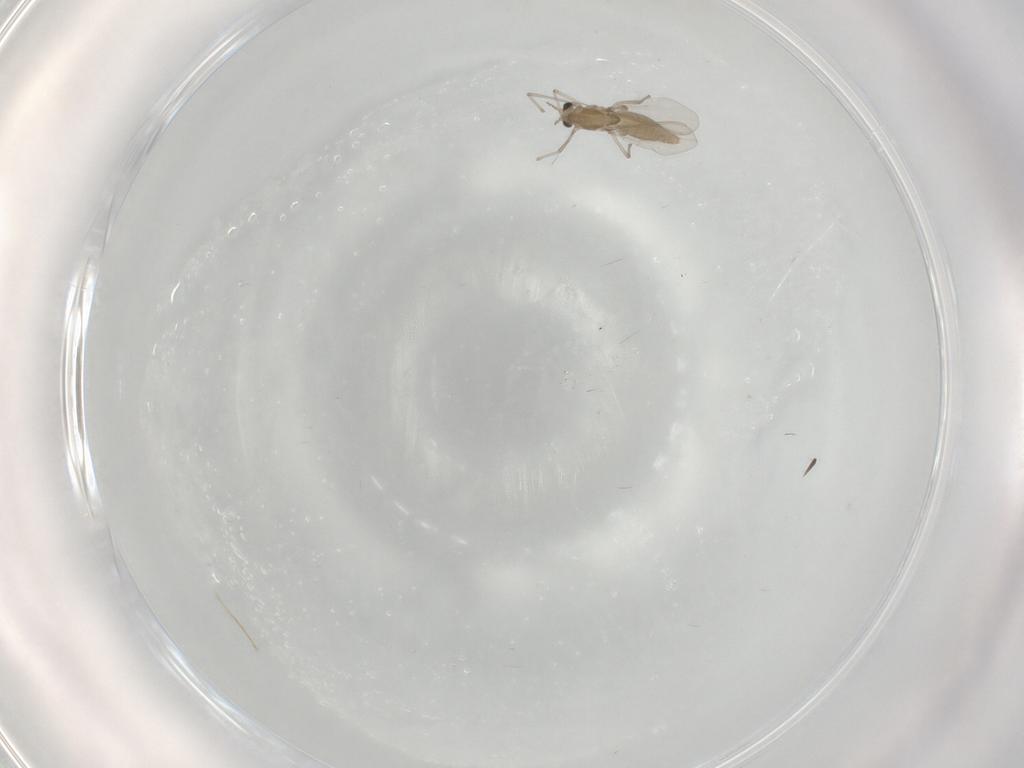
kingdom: Animalia
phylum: Arthropoda
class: Insecta
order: Diptera
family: Chironomidae
